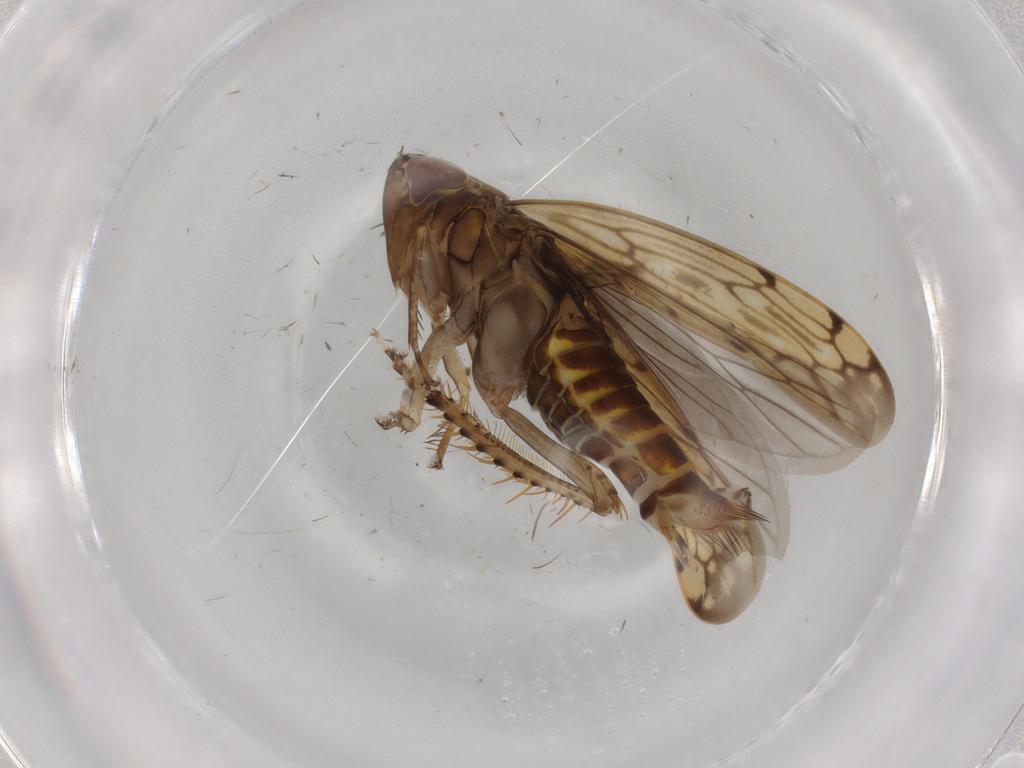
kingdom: Animalia
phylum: Arthropoda
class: Insecta
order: Hemiptera
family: Cicadellidae
